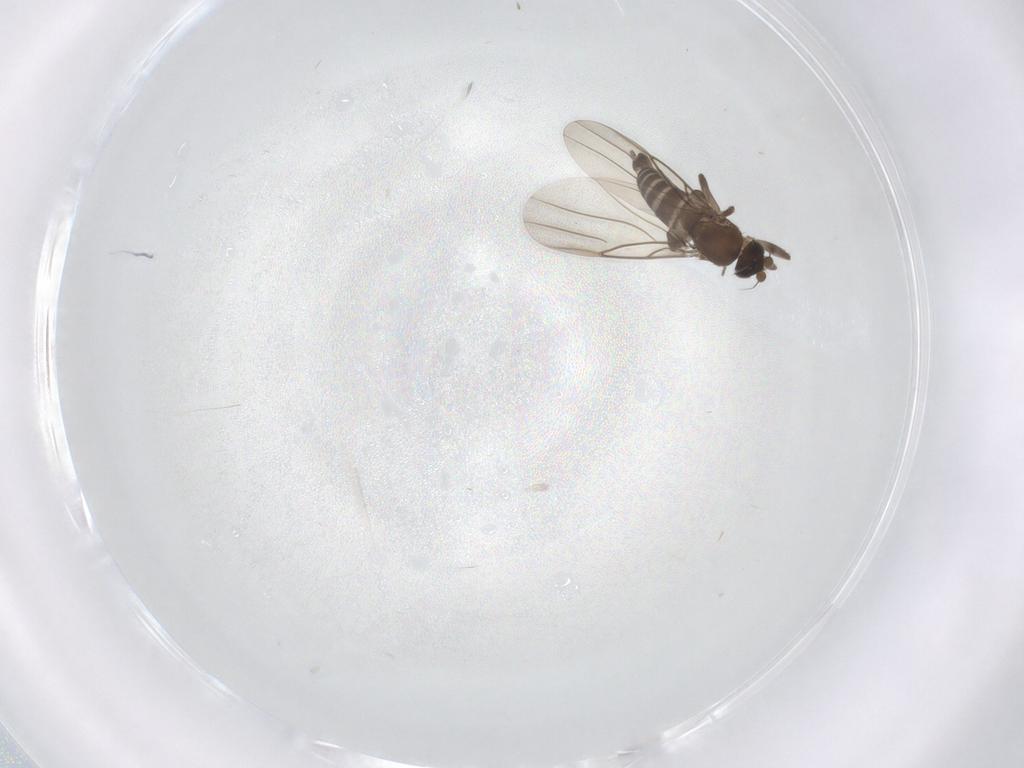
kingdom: Animalia
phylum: Arthropoda
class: Insecta
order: Diptera
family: Phoridae
